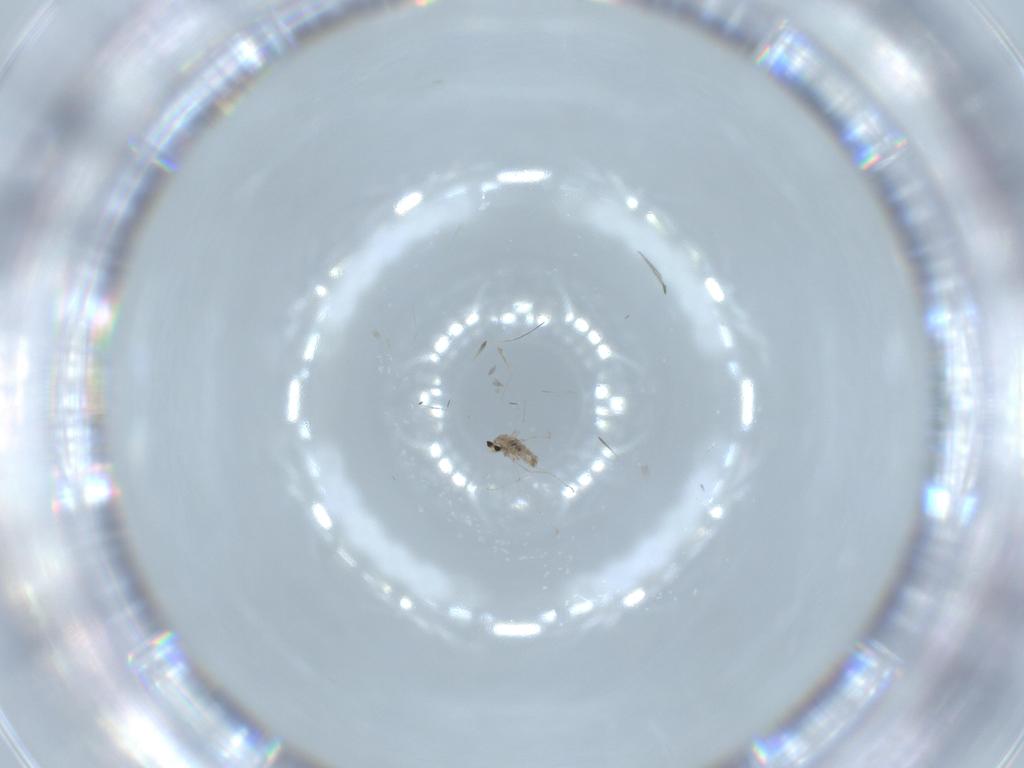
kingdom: Animalia
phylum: Arthropoda
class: Insecta
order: Diptera
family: Cecidomyiidae
